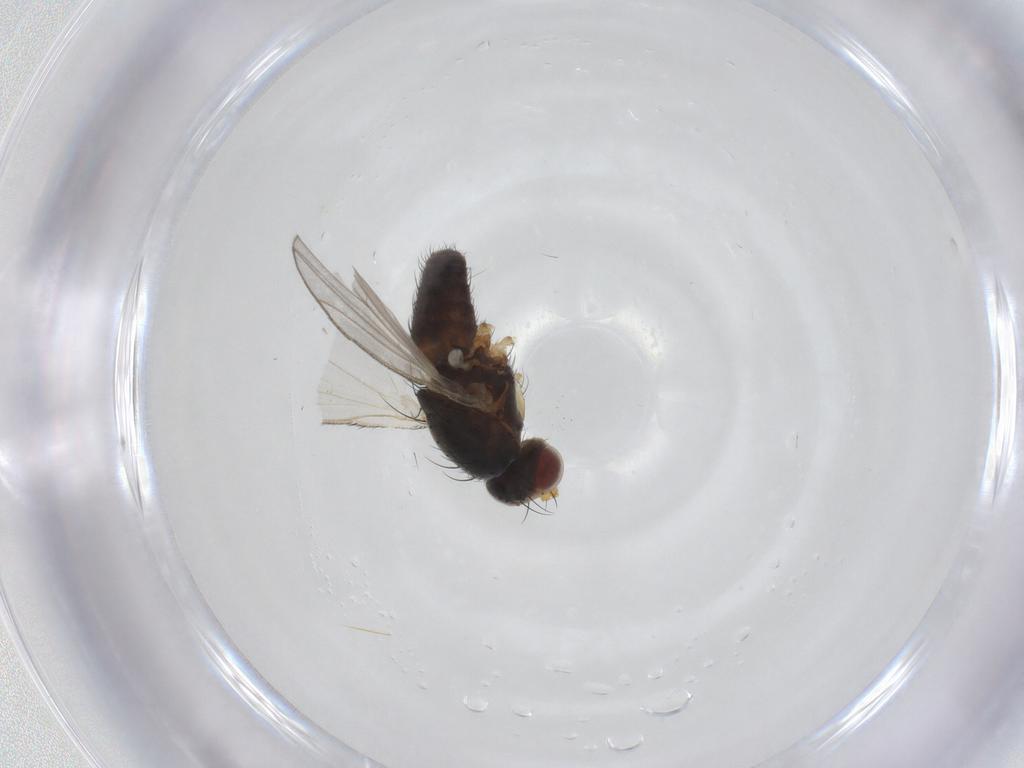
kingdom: Animalia
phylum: Arthropoda
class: Insecta
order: Diptera
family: Heleomyzidae
